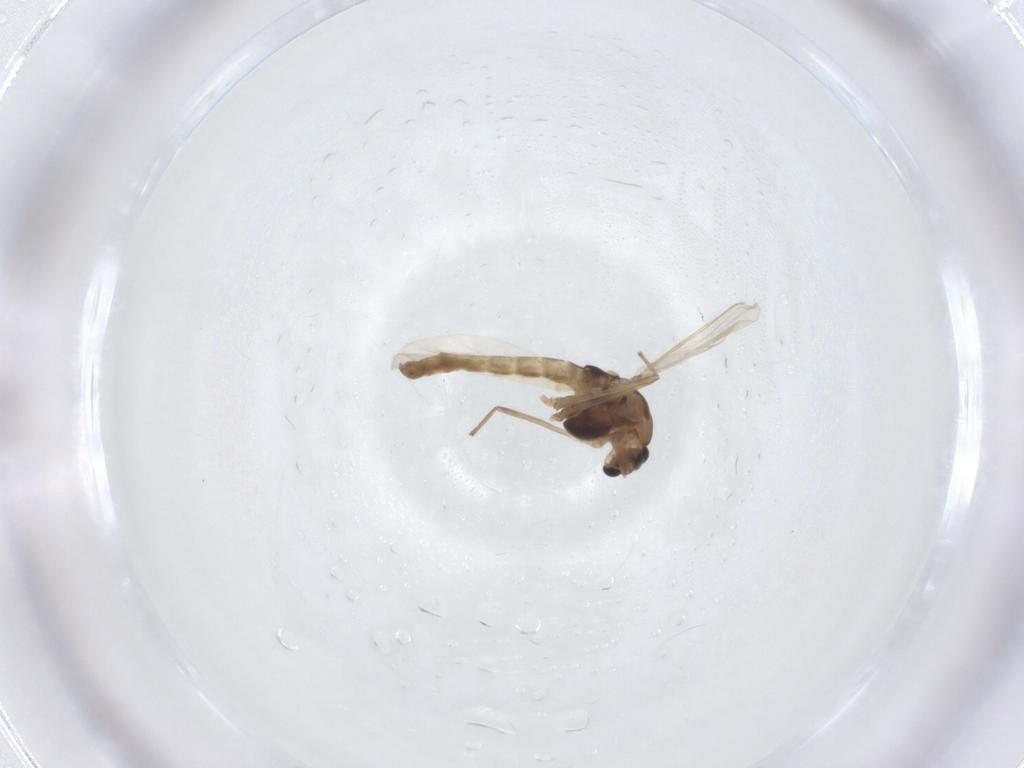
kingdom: Animalia
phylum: Arthropoda
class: Insecta
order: Diptera
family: Chironomidae
